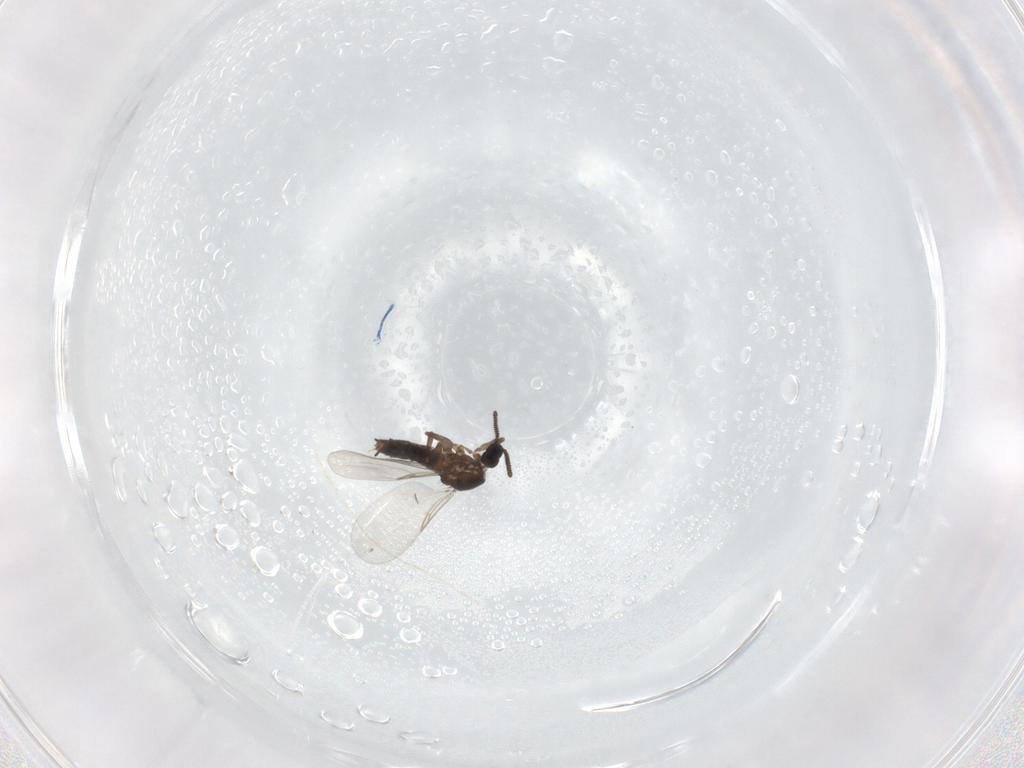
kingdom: Animalia
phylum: Arthropoda
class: Insecta
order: Diptera
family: Scatopsidae
